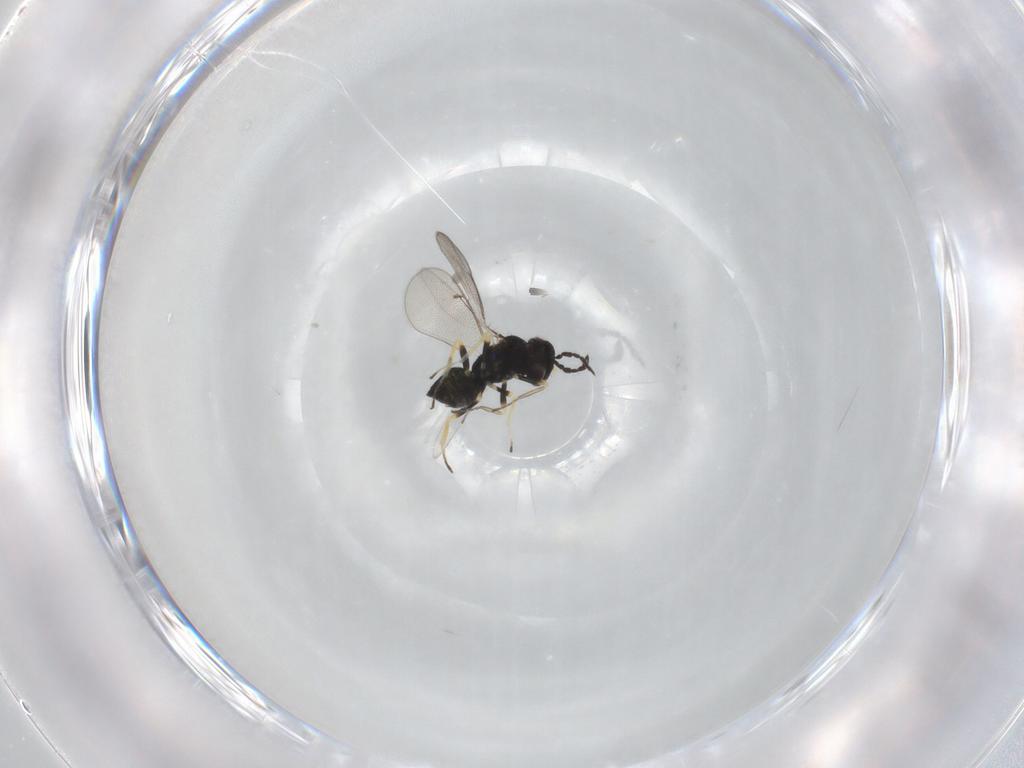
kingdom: Animalia
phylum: Arthropoda
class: Insecta
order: Hymenoptera
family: Eulophidae
